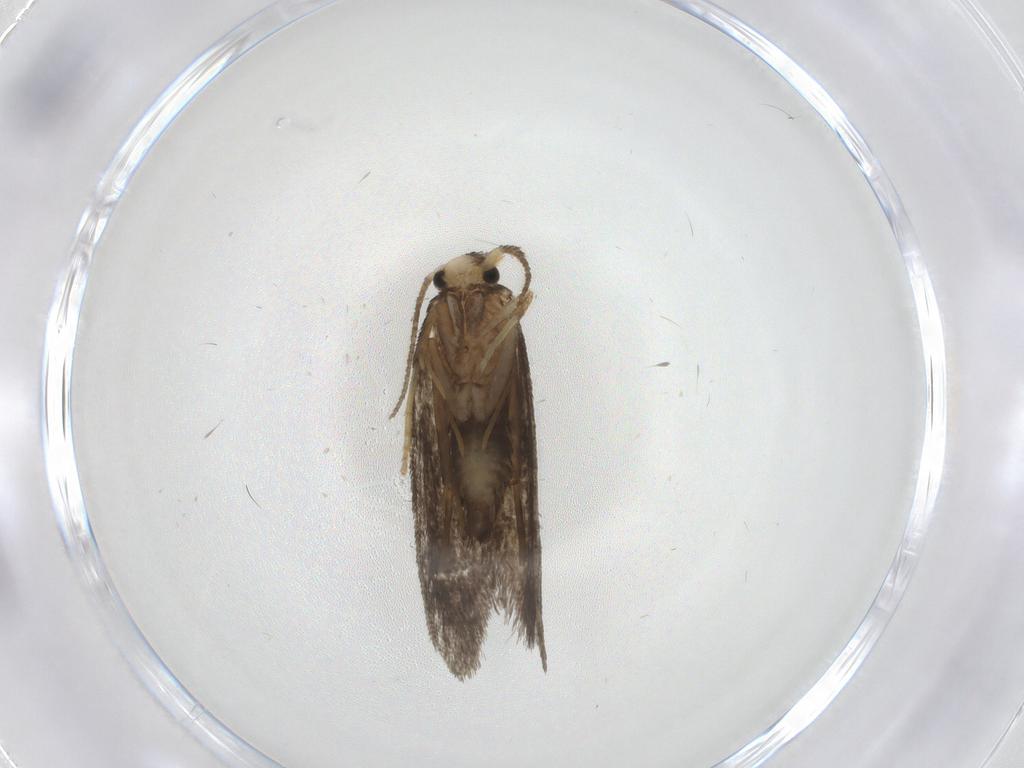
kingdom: Animalia
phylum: Arthropoda
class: Insecta
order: Lepidoptera
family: Psychidae
